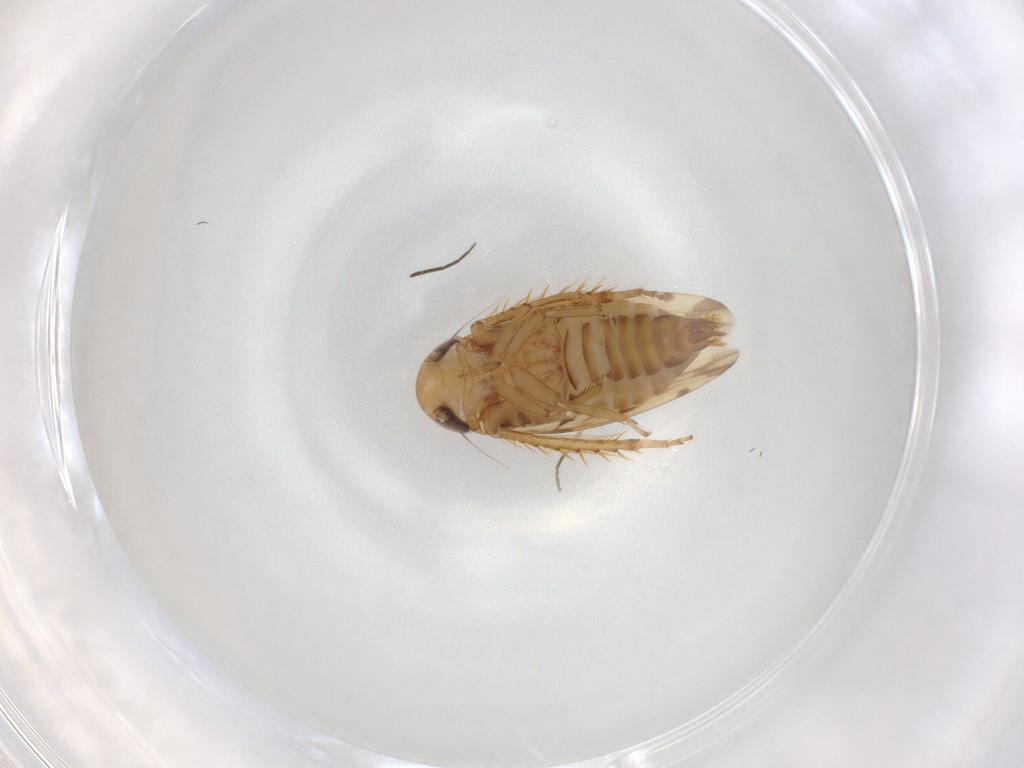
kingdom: Animalia
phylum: Arthropoda
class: Insecta
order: Hemiptera
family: Cicadellidae
